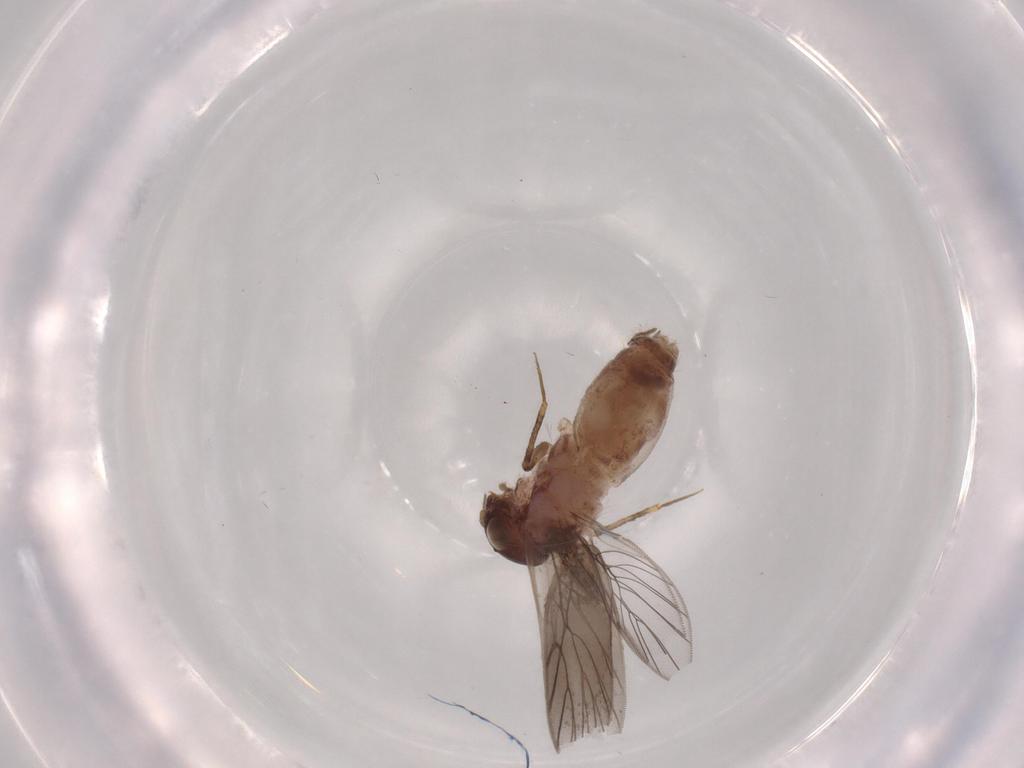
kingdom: Animalia
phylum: Arthropoda
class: Insecta
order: Psocodea
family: Lepidopsocidae
